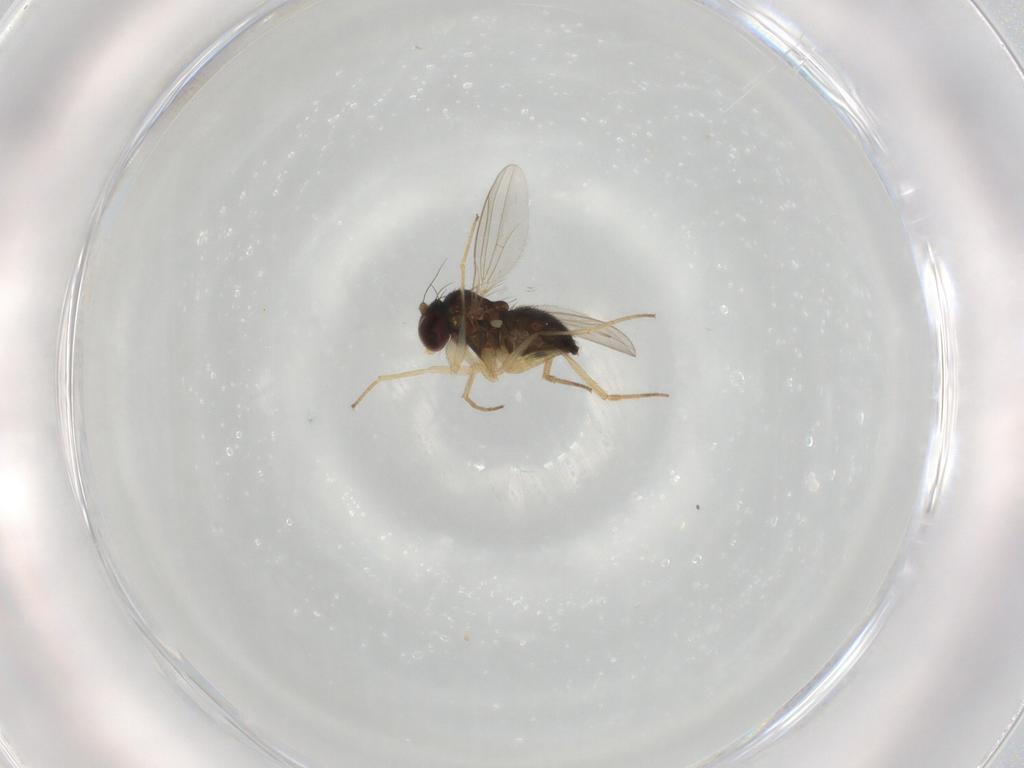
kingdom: Animalia
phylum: Arthropoda
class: Insecta
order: Diptera
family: Dolichopodidae
